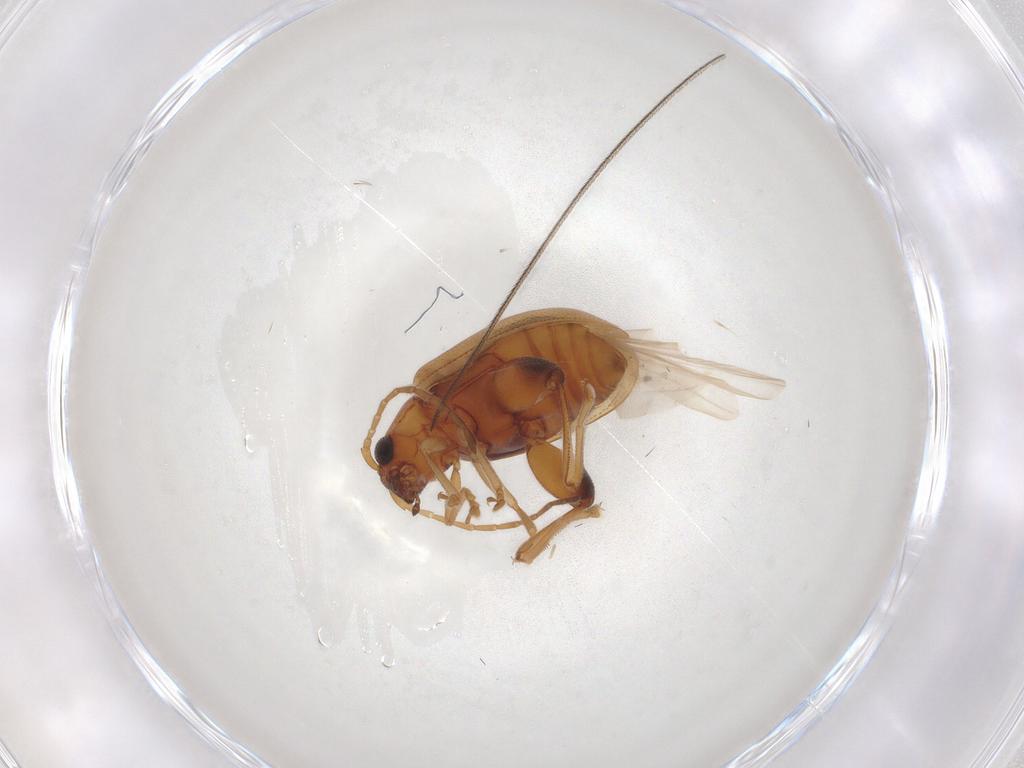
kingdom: Animalia
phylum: Arthropoda
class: Insecta
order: Coleoptera
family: Chrysomelidae
